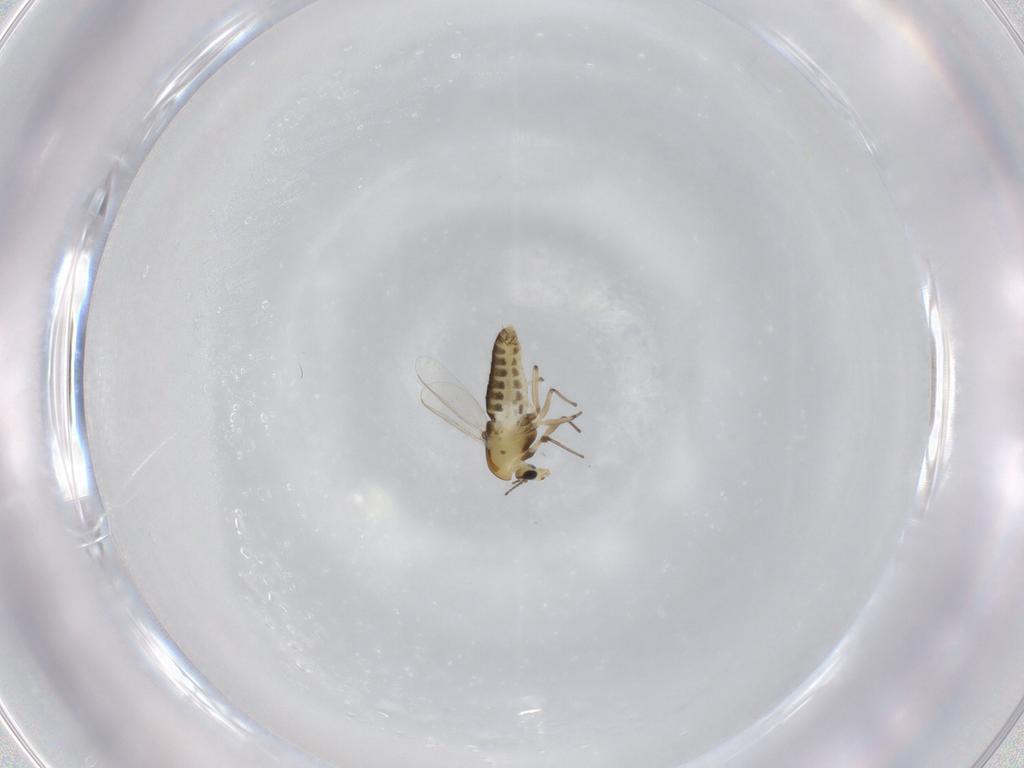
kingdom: Animalia
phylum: Arthropoda
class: Insecta
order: Diptera
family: Chironomidae
